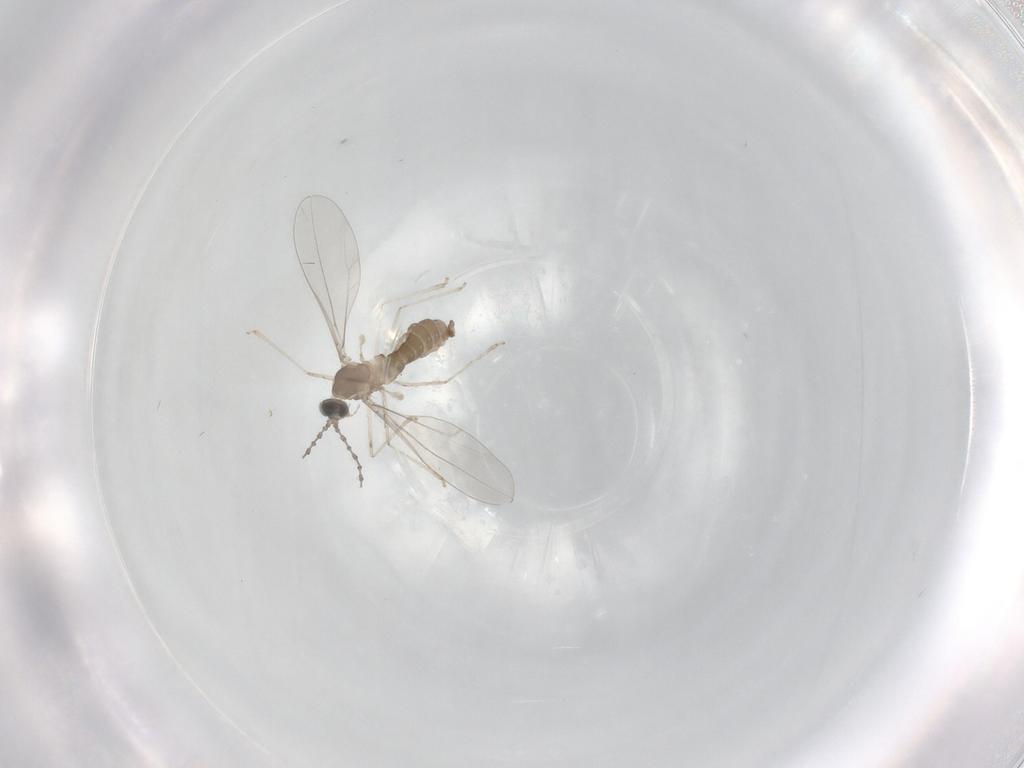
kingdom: Animalia
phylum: Arthropoda
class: Insecta
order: Diptera
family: Cecidomyiidae
